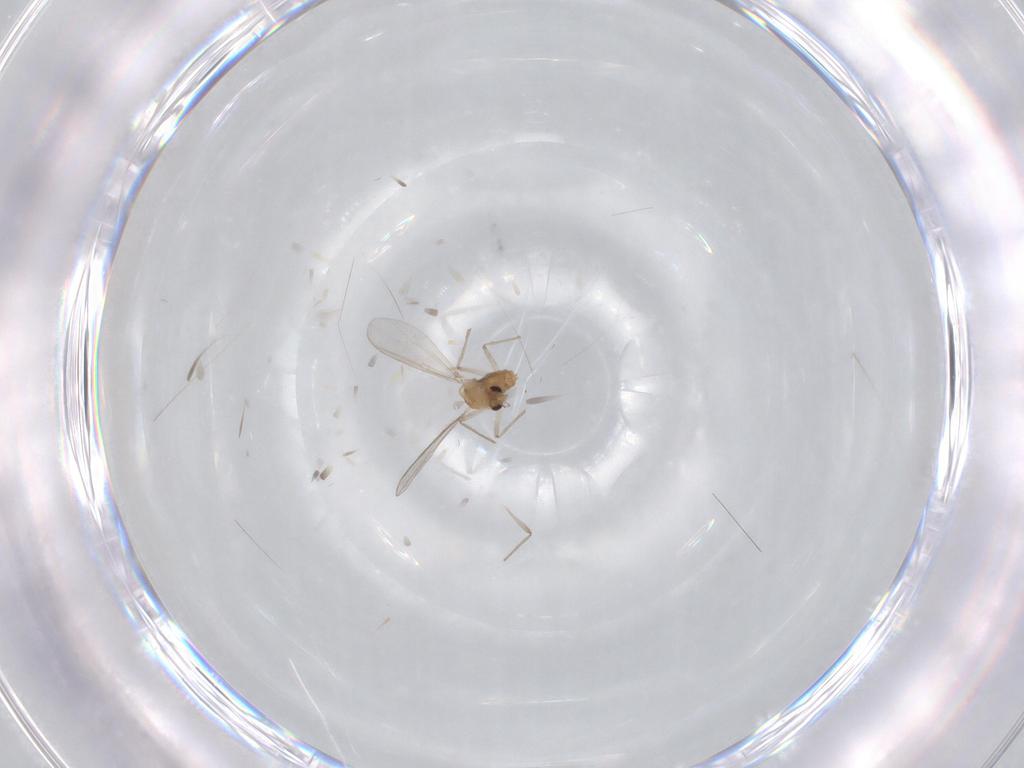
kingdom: Animalia
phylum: Arthropoda
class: Insecta
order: Diptera
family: Chironomidae
